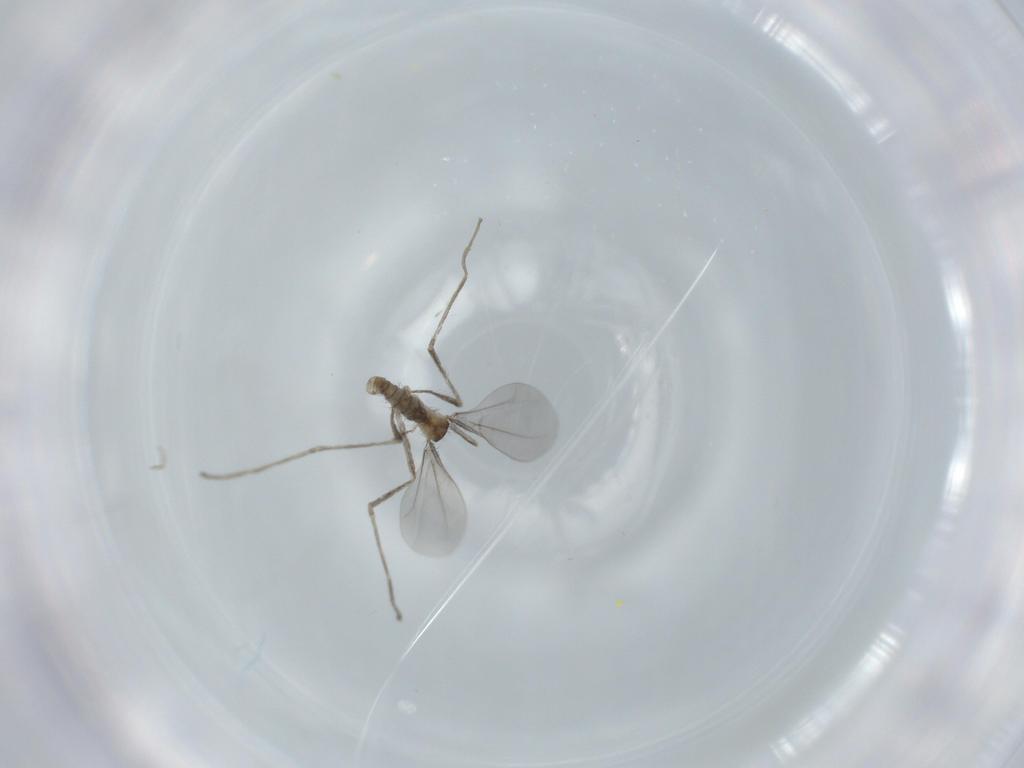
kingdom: Animalia
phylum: Arthropoda
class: Insecta
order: Diptera
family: Cecidomyiidae
